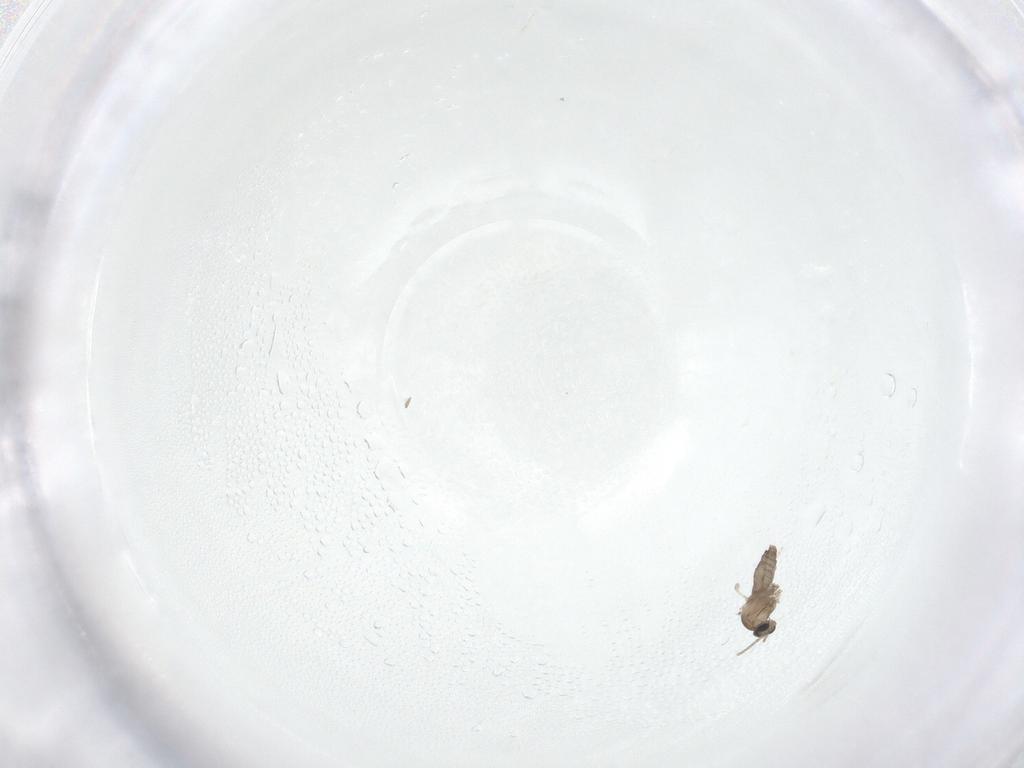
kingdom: Animalia
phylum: Arthropoda
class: Insecta
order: Diptera
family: Cecidomyiidae
